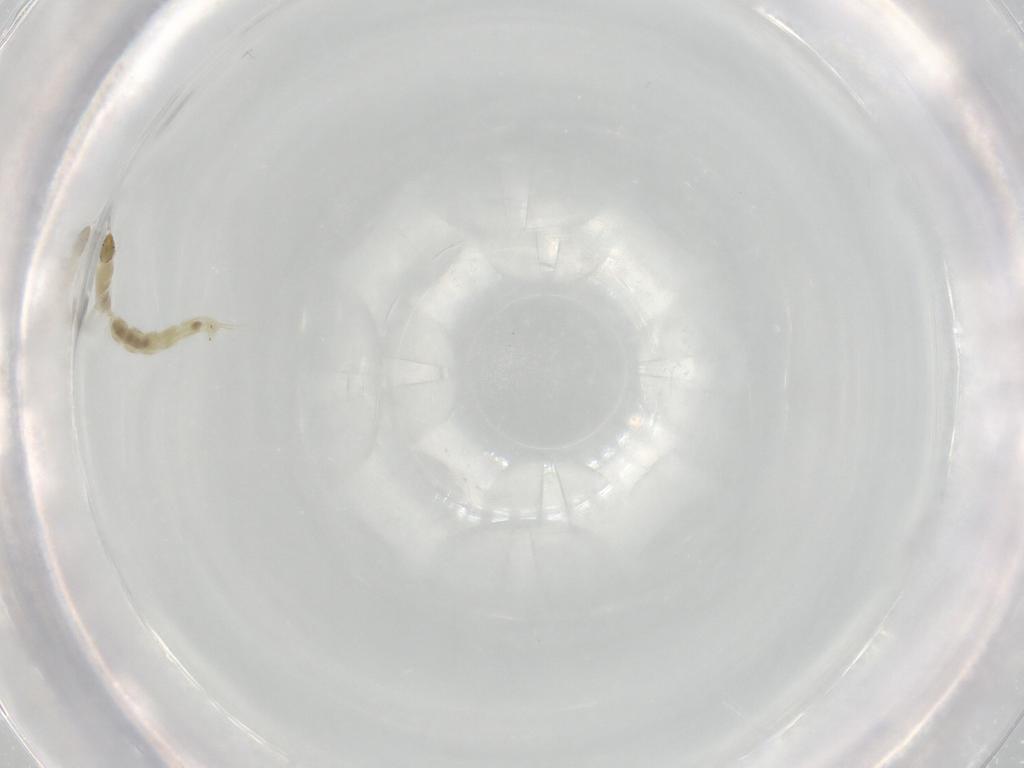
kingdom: Animalia
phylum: Arthropoda
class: Insecta
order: Diptera
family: Chironomidae
